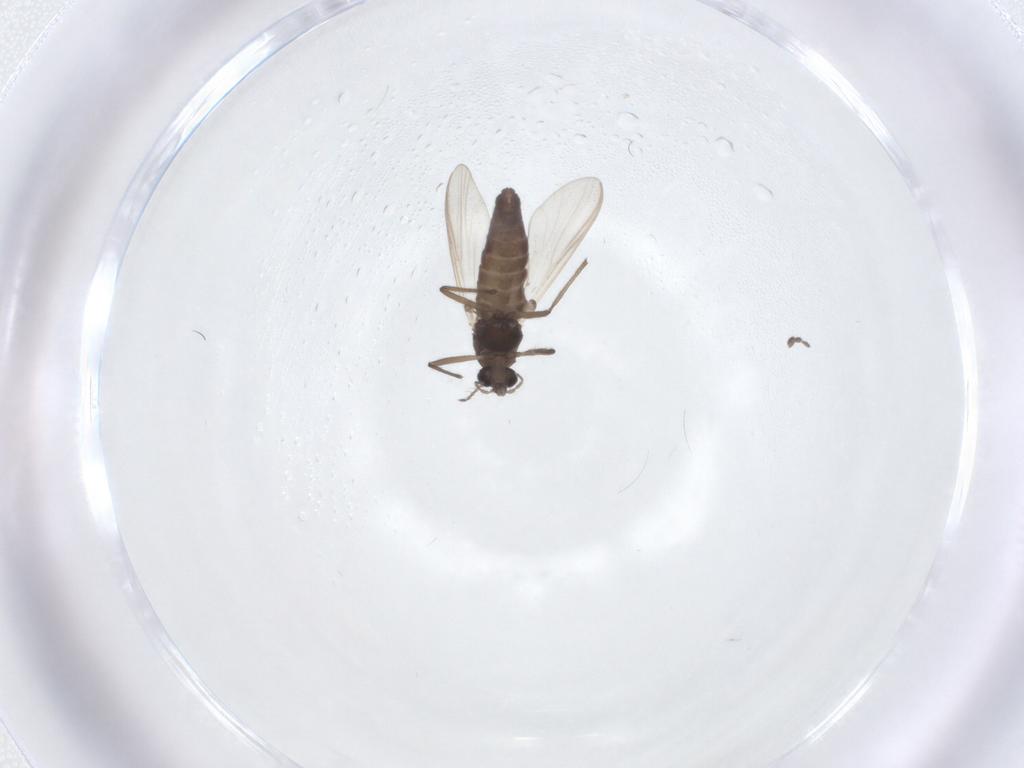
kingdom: Animalia
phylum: Arthropoda
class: Insecta
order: Diptera
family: Sciaridae
